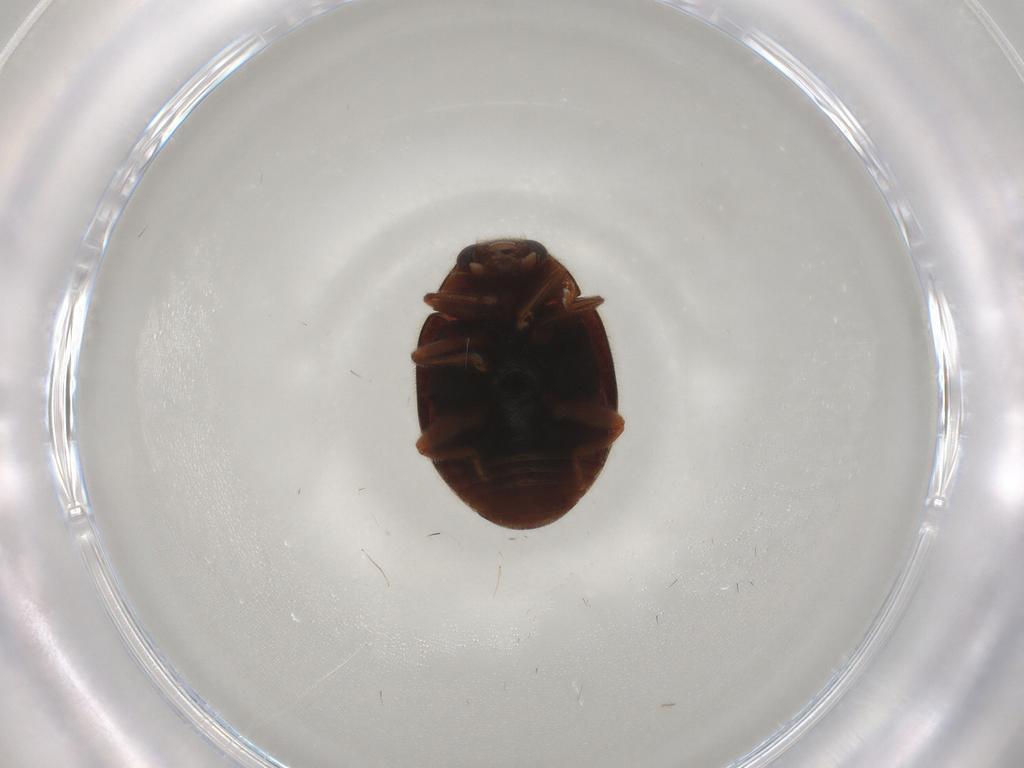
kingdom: Animalia
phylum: Arthropoda
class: Insecta
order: Coleoptera
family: Coccinellidae
